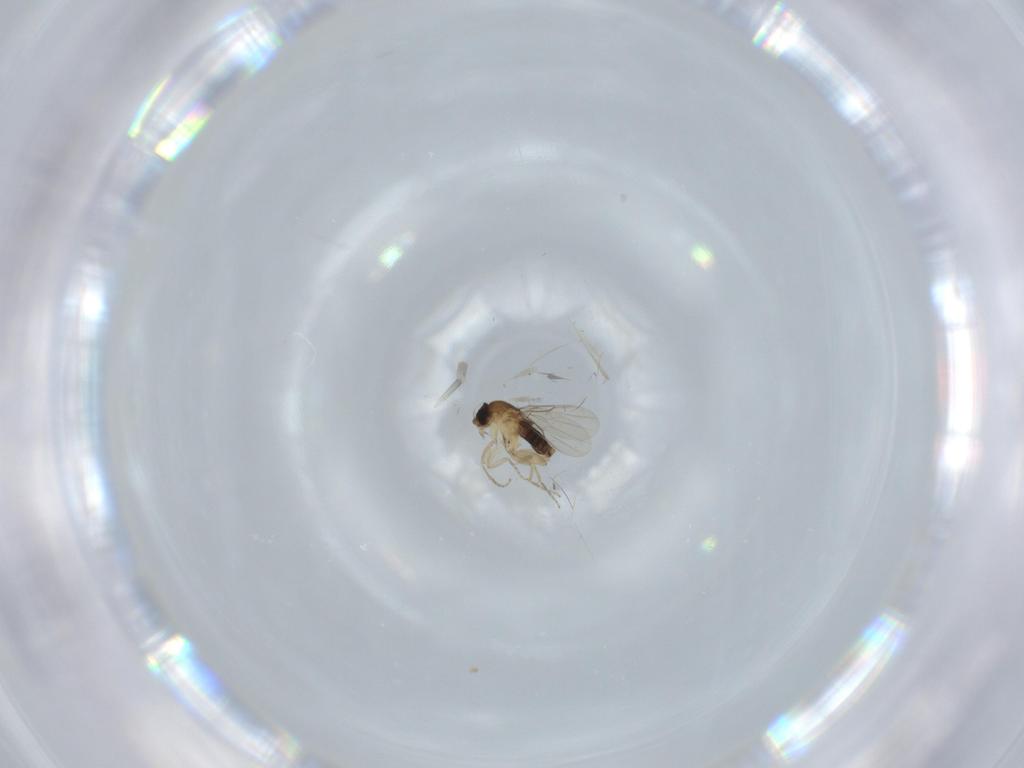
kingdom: Animalia
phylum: Arthropoda
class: Insecta
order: Diptera
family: Phoridae
